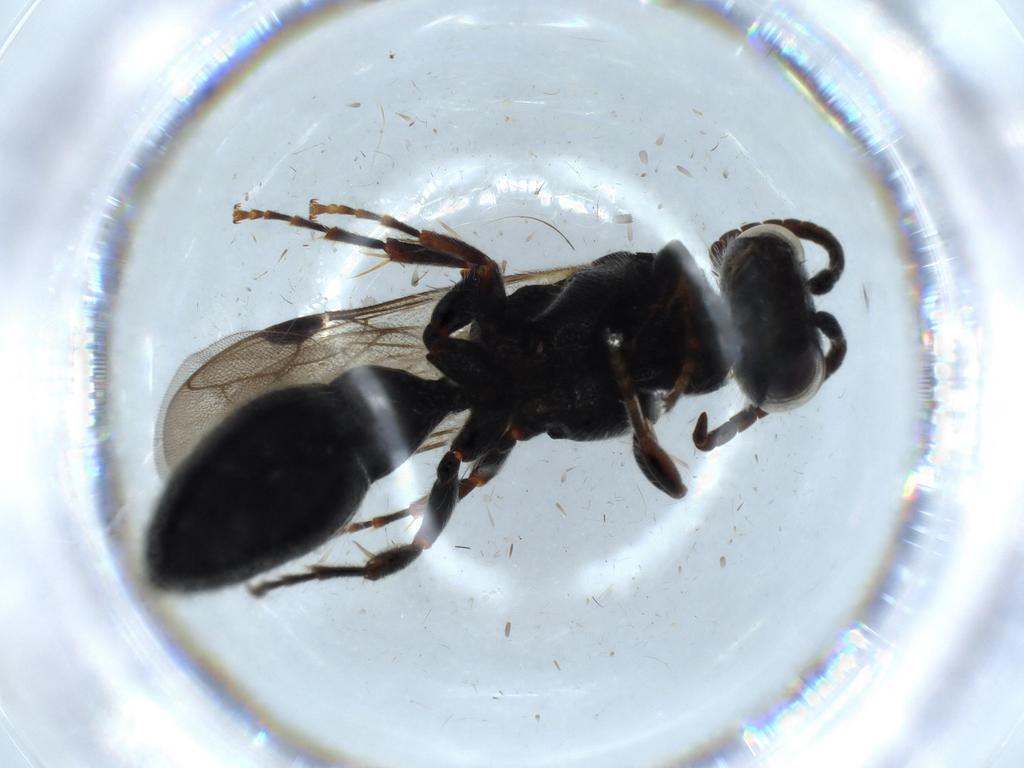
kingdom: Animalia
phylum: Arthropoda
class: Insecta
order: Hymenoptera
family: Tiphiidae
